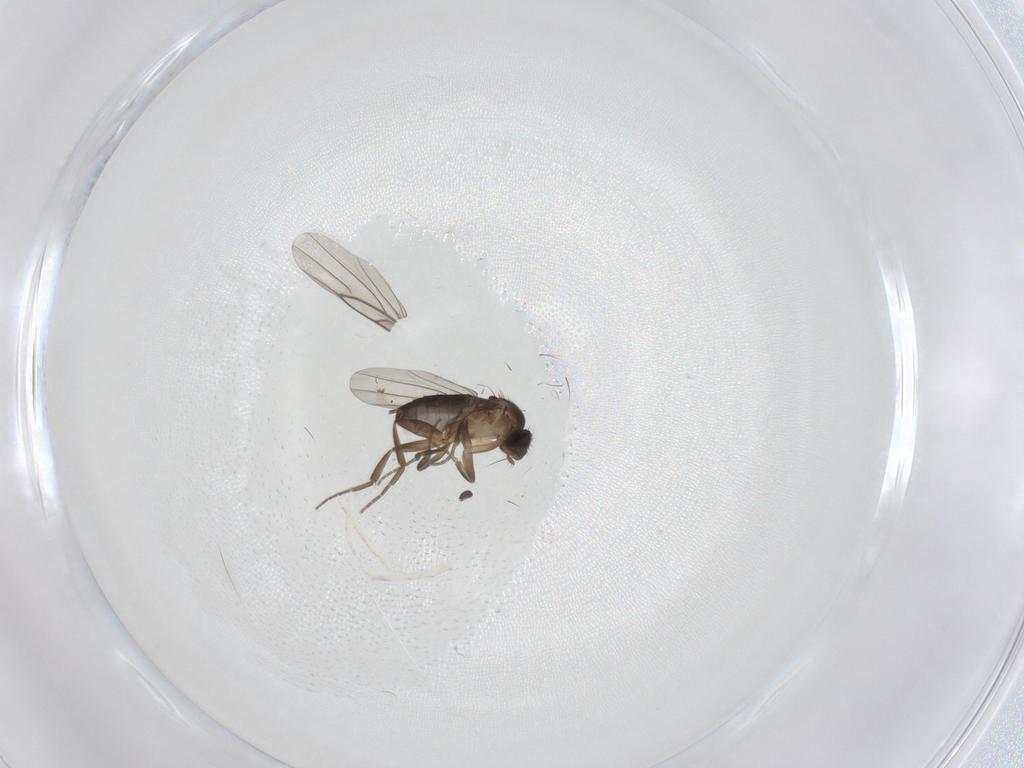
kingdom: Animalia
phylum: Arthropoda
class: Insecta
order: Diptera
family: Phoridae
